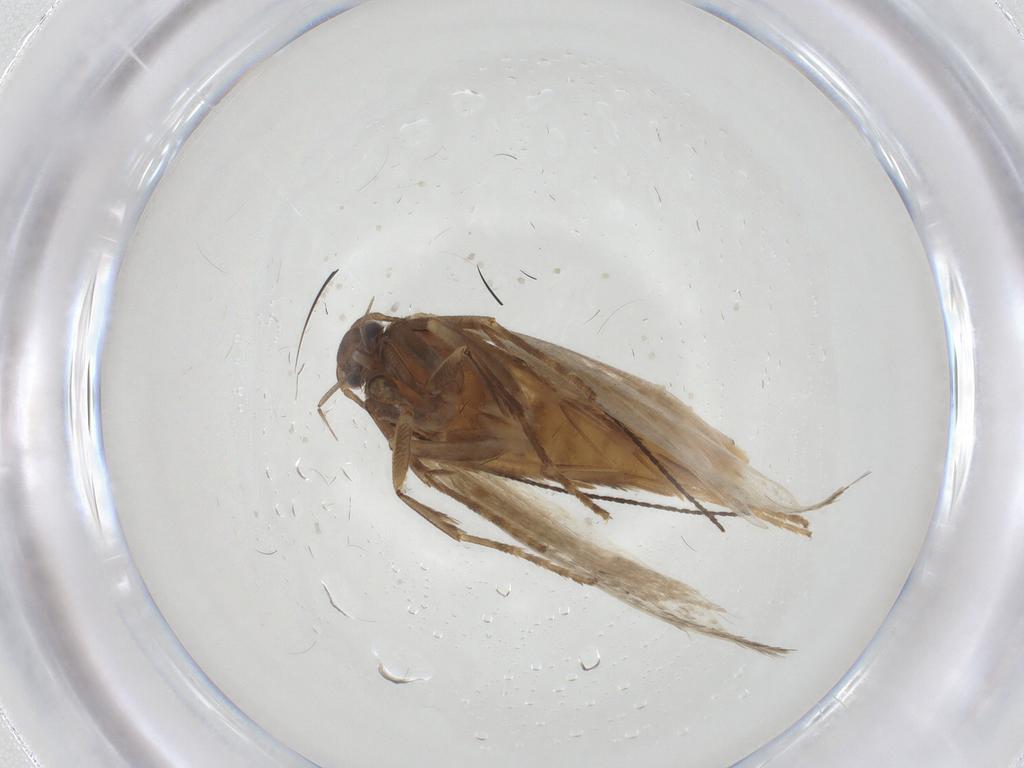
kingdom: Animalia
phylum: Arthropoda
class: Insecta
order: Lepidoptera
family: Noctuidae
